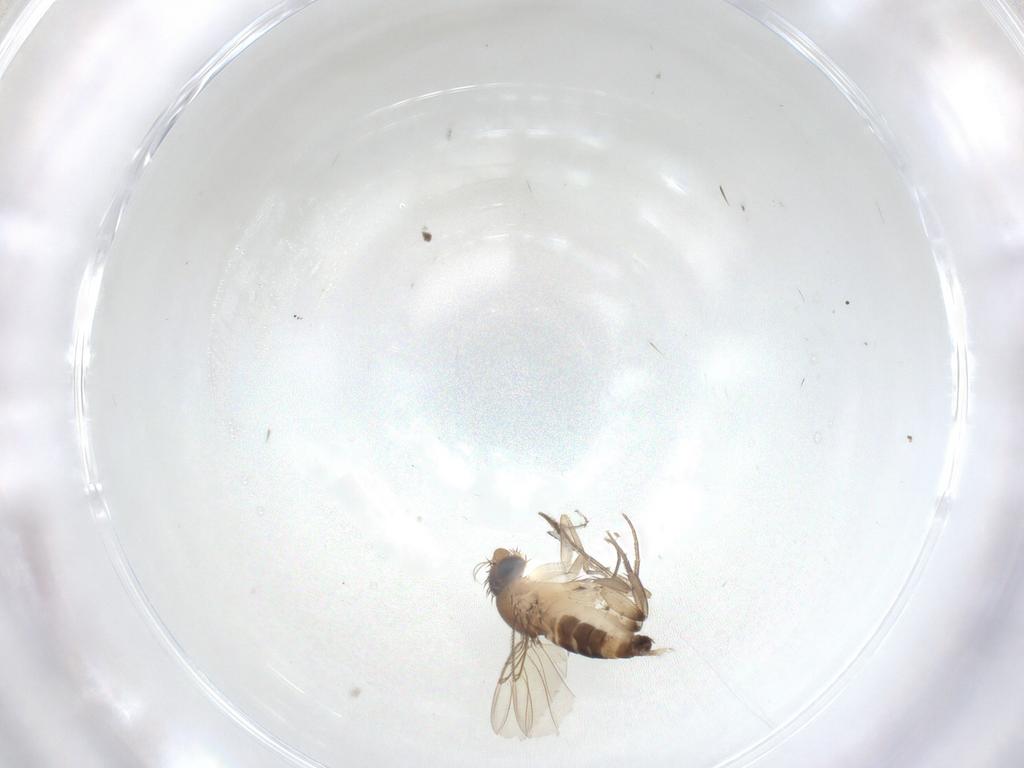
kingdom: Animalia
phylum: Arthropoda
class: Insecta
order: Diptera
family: Phoridae
